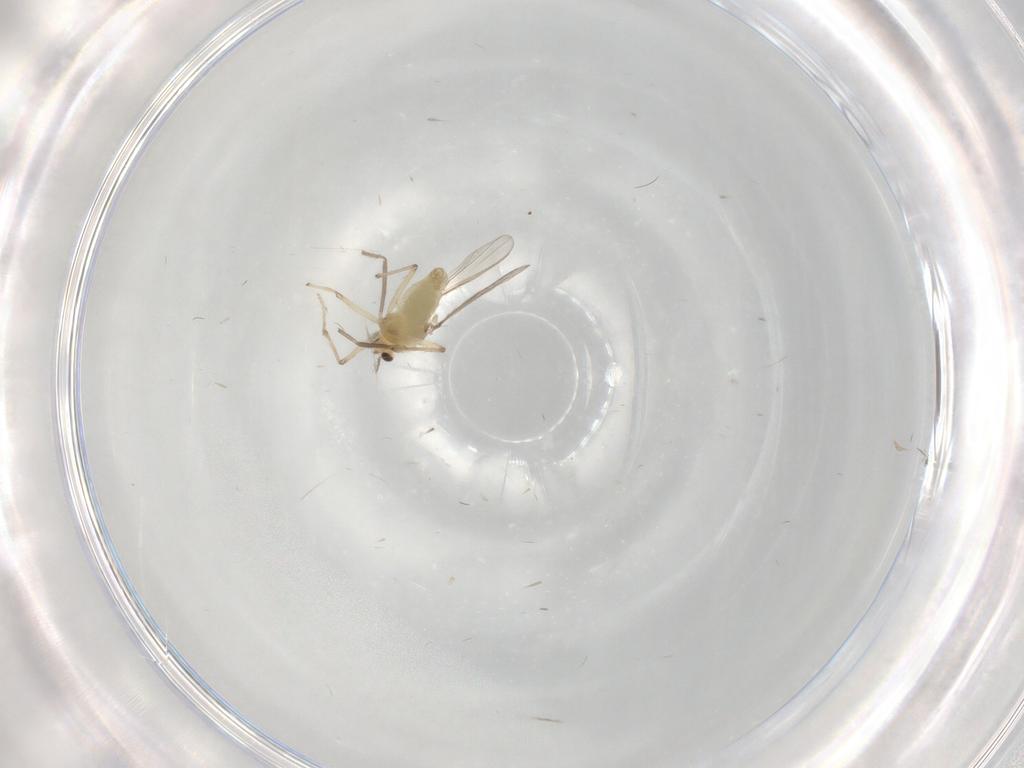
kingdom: Animalia
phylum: Arthropoda
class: Insecta
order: Diptera
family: Chironomidae
